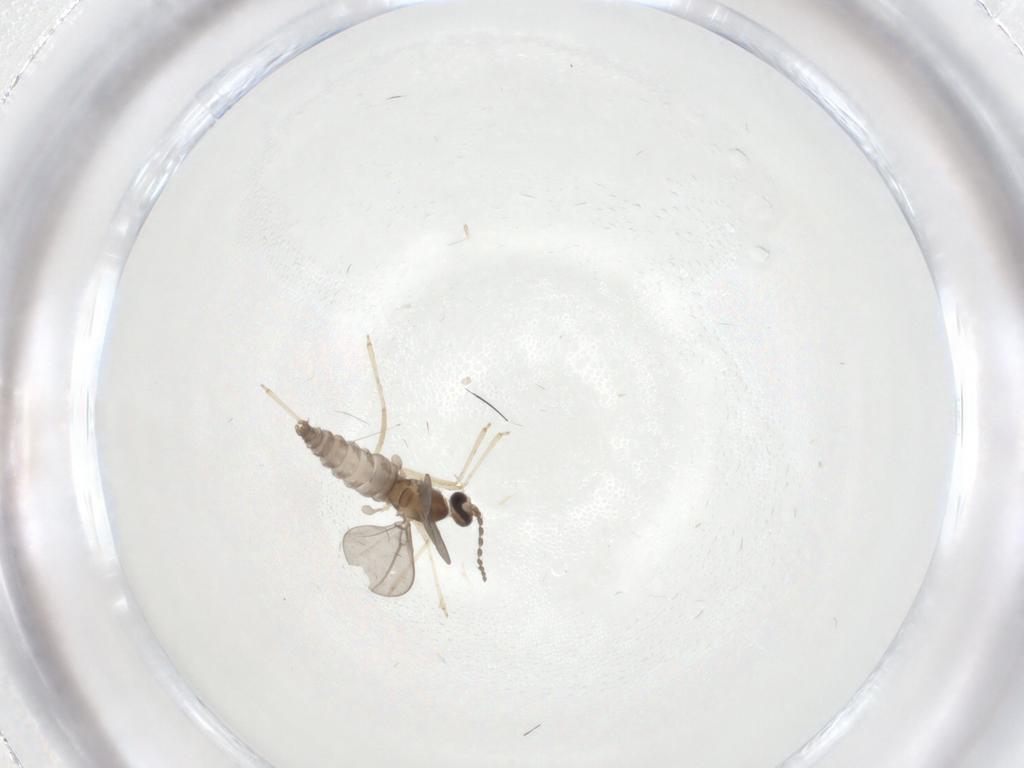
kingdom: Animalia
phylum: Arthropoda
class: Insecta
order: Diptera
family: Cecidomyiidae
